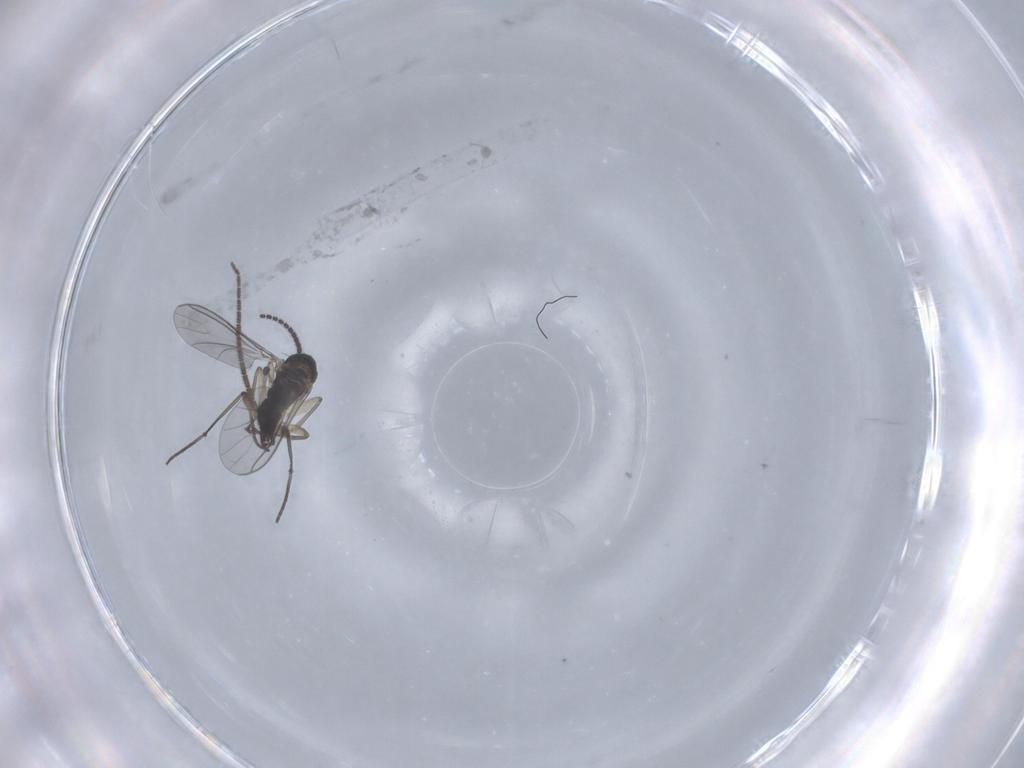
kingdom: Animalia
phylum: Arthropoda
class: Insecta
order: Diptera
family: Sciaridae
